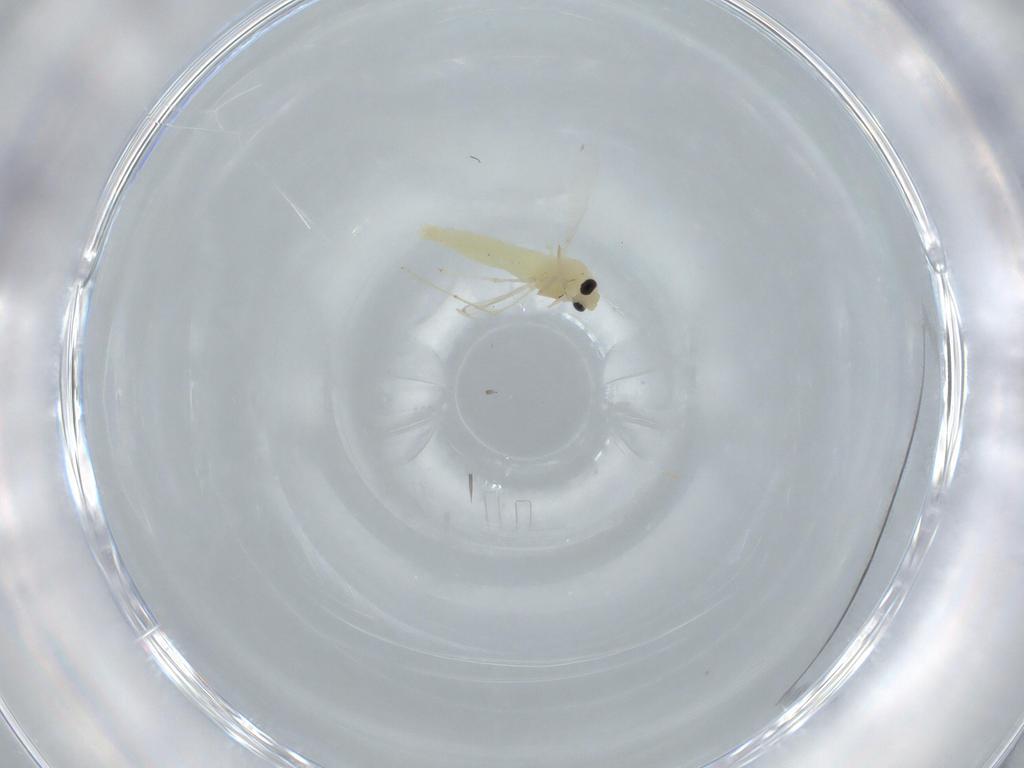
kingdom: Animalia
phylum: Arthropoda
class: Insecta
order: Diptera
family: Chironomidae
